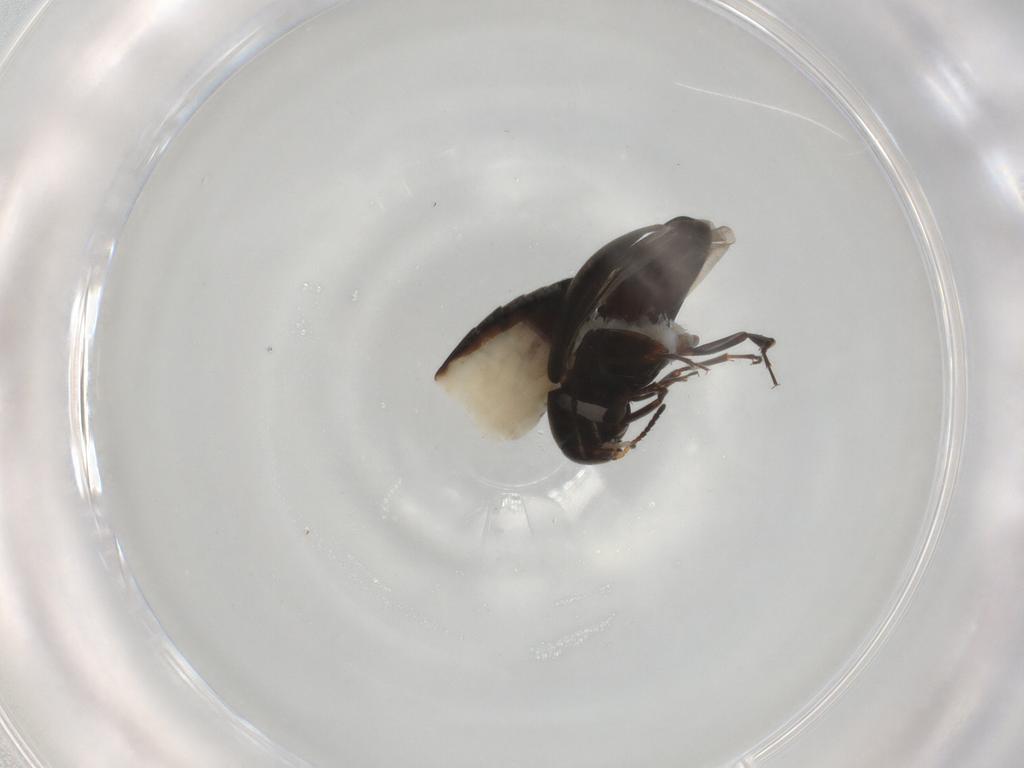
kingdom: Animalia
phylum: Arthropoda
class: Insecta
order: Coleoptera
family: Scraptiidae
